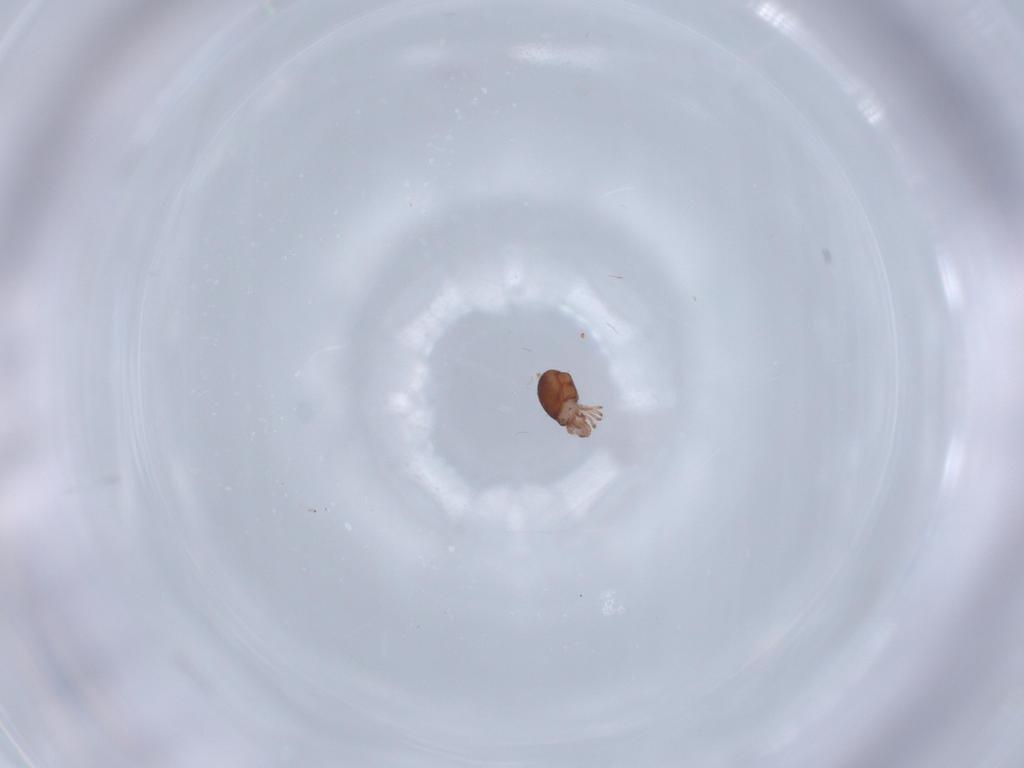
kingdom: Animalia
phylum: Arthropoda
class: Arachnida
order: Sarcoptiformes
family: Phthiracaridae
